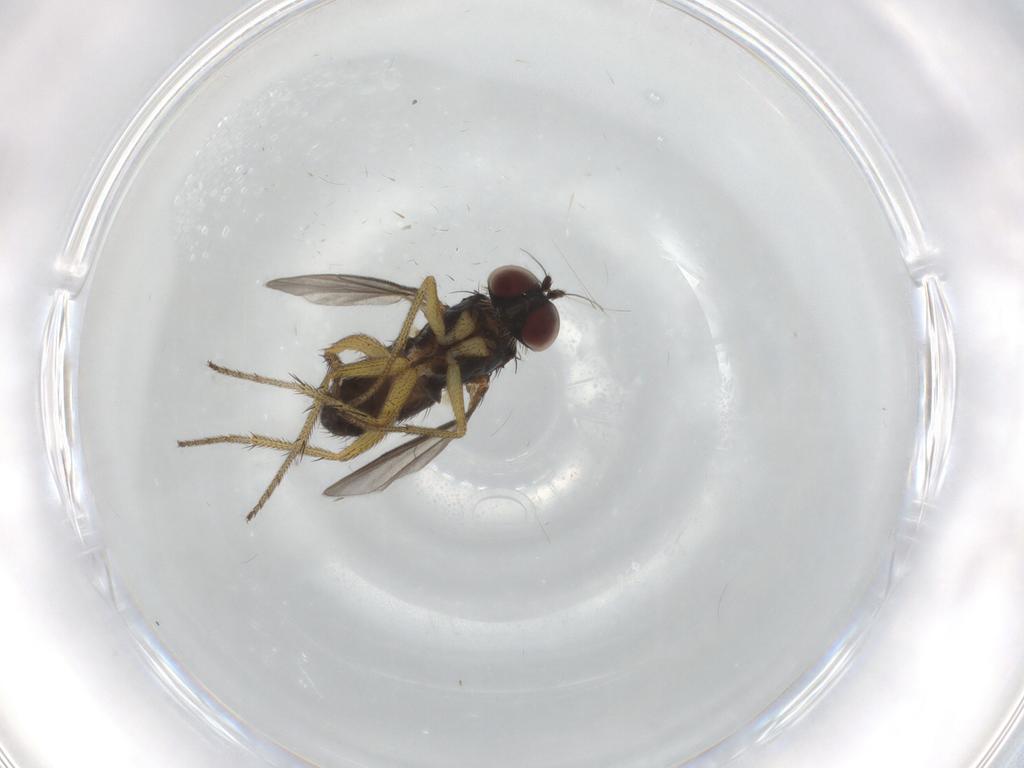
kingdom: Animalia
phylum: Arthropoda
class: Insecta
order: Diptera
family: Dolichopodidae
